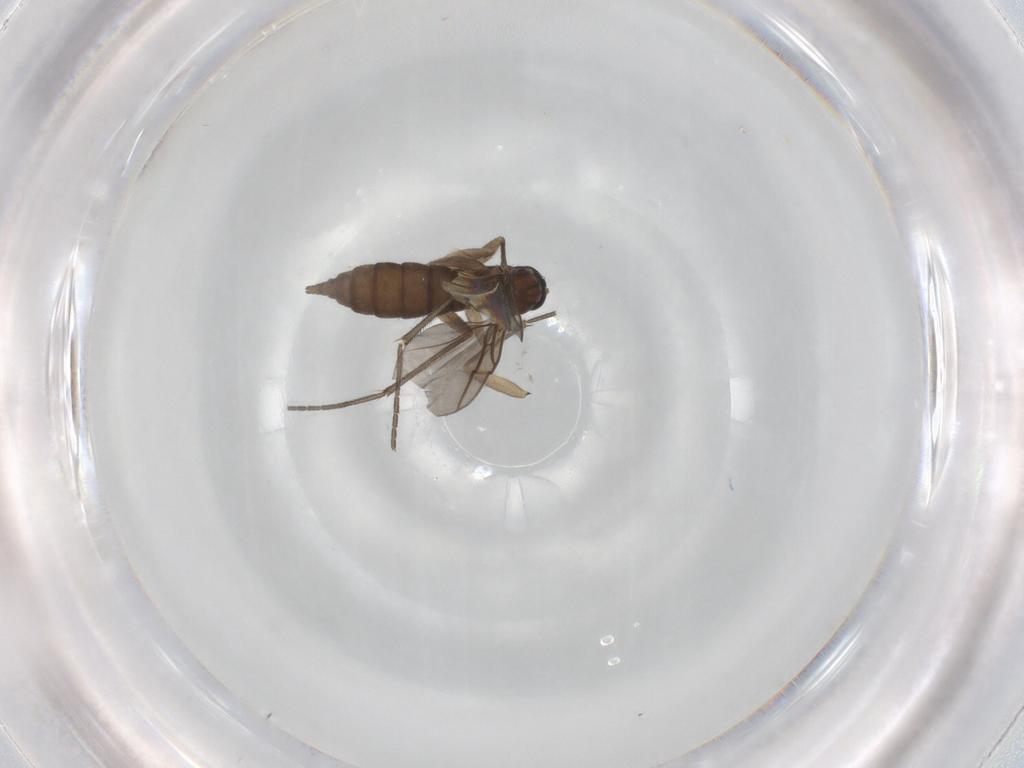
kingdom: Animalia
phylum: Arthropoda
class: Insecta
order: Diptera
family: Sciaridae
